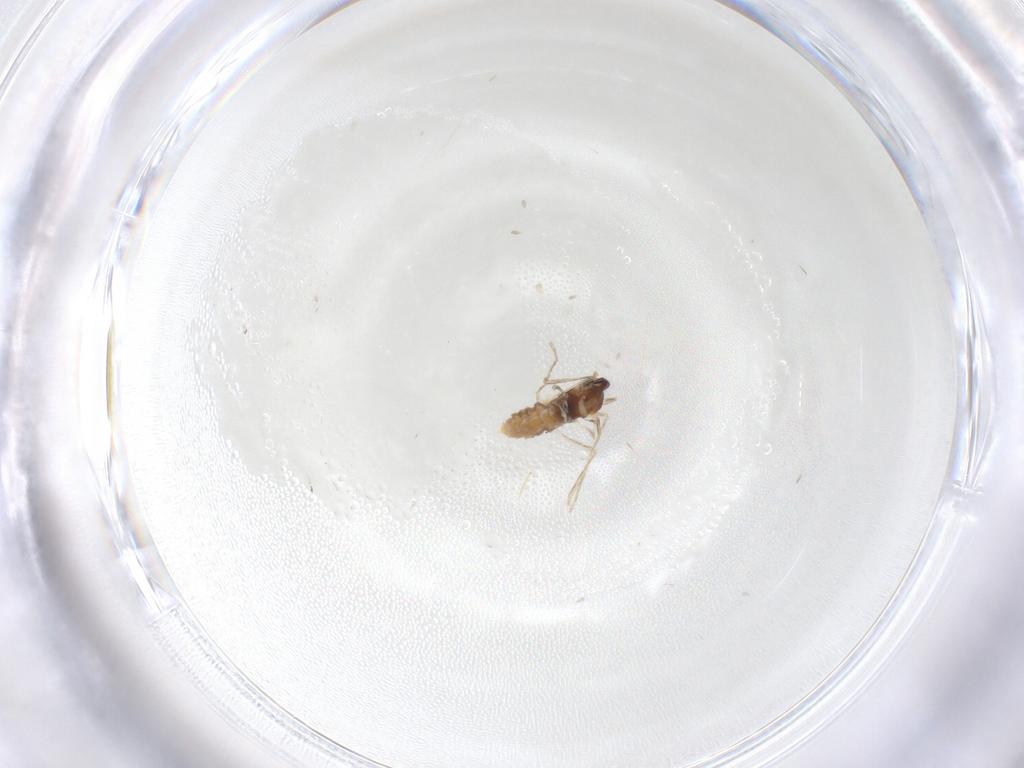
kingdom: Animalia
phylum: Arthropoda
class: Insecta
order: Diptera
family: Cecidomyiidae
